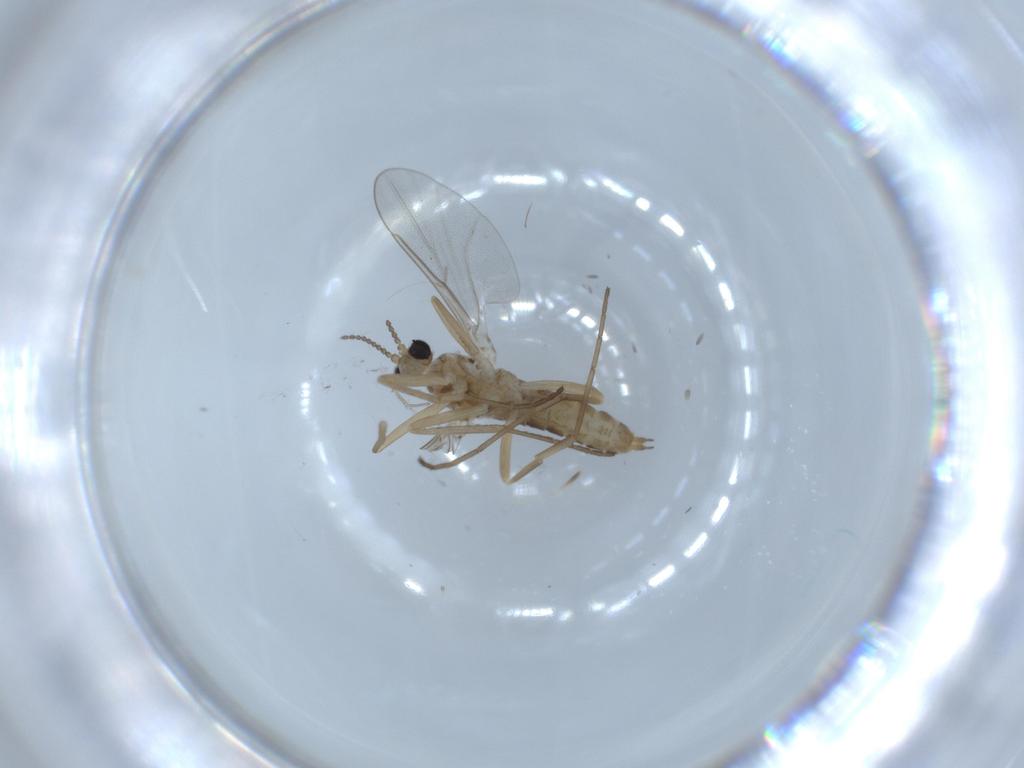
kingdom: Animalia
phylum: Arthropoda
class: Insecta
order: Diptera
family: Cecidomyiidae
